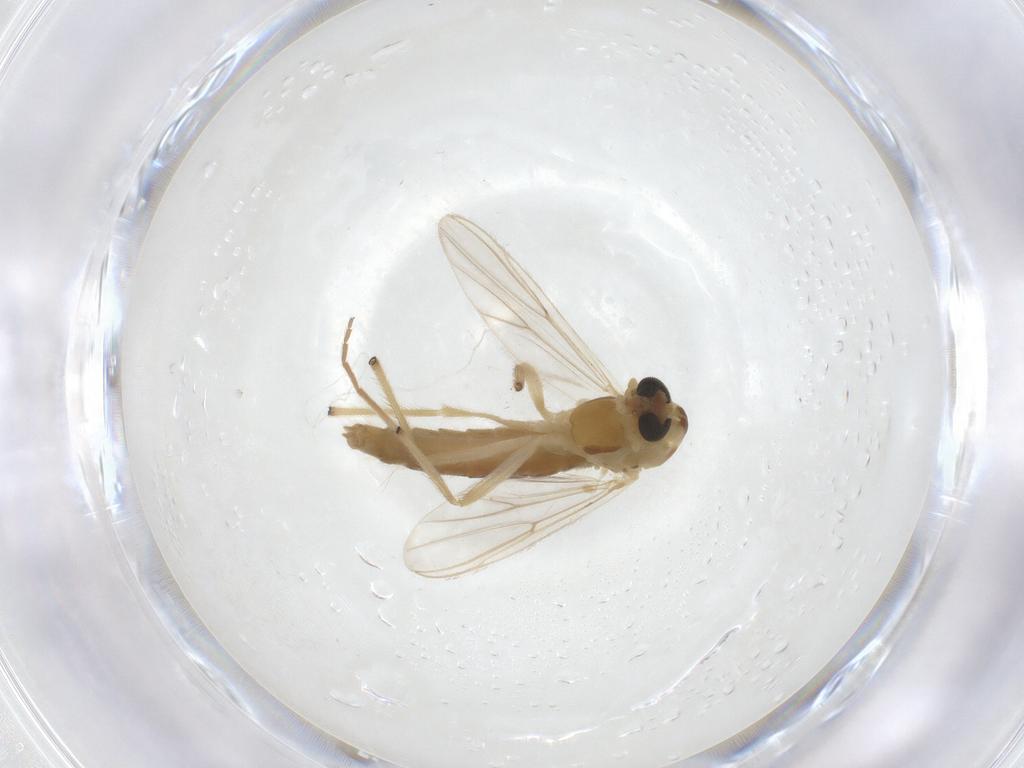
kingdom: Animalia
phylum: Arthropoda
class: Insecta
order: Diptera
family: Chironomidae
